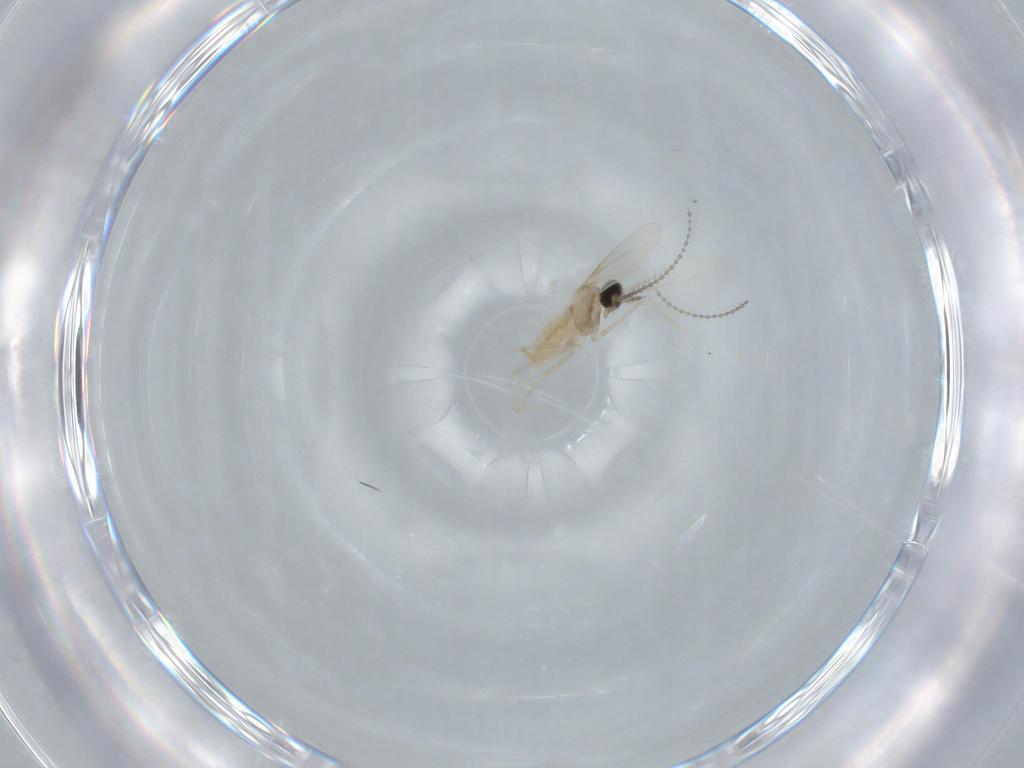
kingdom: Animalia
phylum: Arthropoda
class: Insecta
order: Diptera
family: Cecidomyiidae
